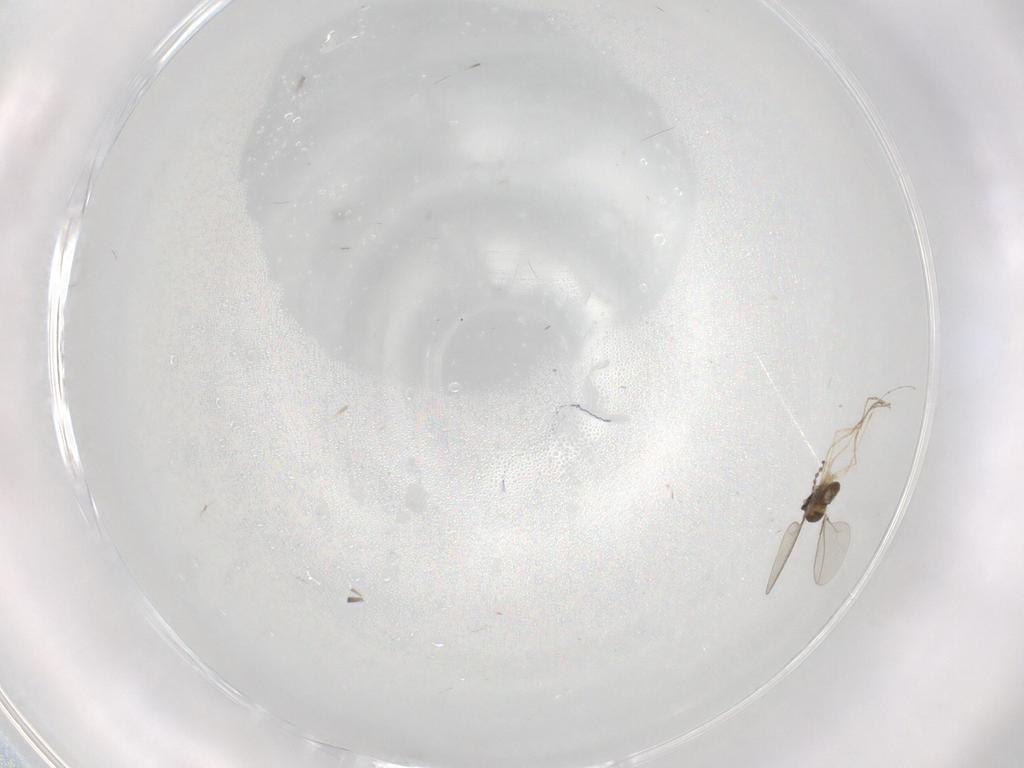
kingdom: Animalia
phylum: Arthropoda
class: Insecta
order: Diptera
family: Cecidomyiidae
